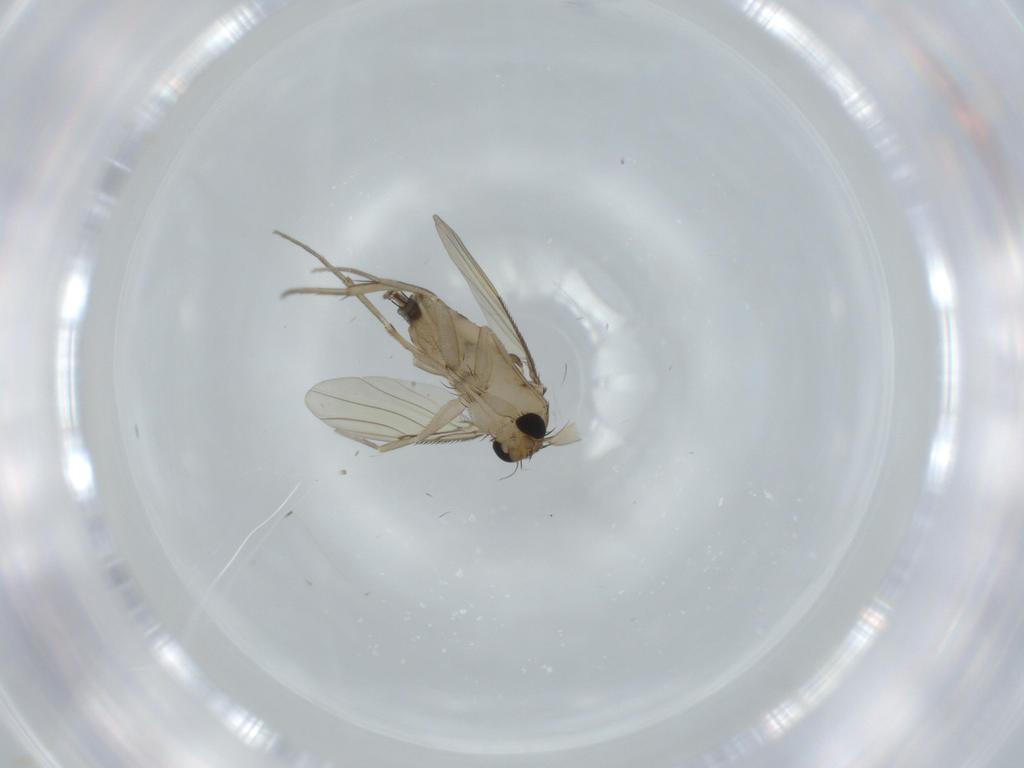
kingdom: Animalia
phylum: Arthropoda
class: Insecta
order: Diptera
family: Phoridae
